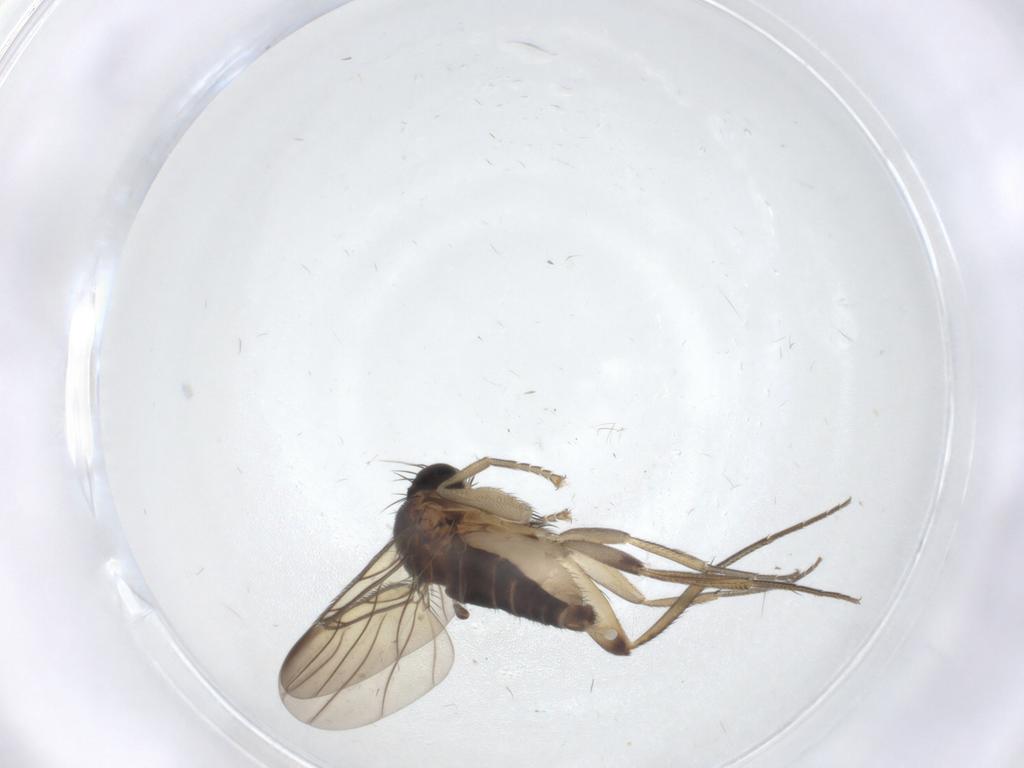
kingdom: Animalia
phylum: Arthropoda
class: Insecta
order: Diptera
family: Phoridae
